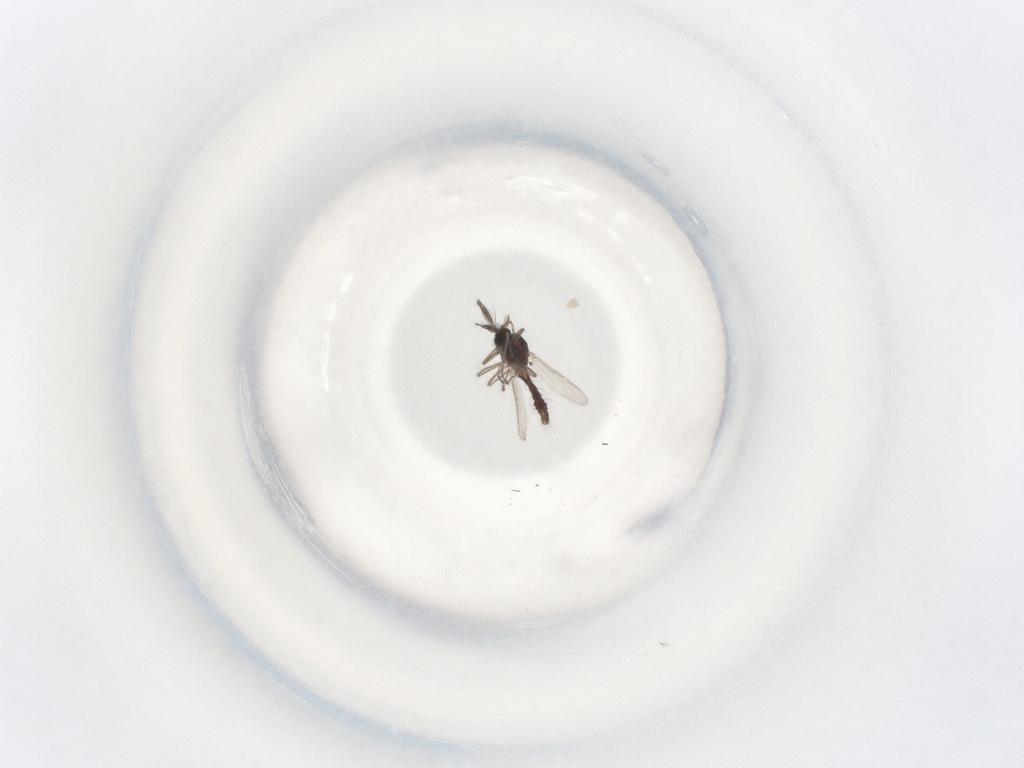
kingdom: Animalia
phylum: Arthropoda
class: Insecta
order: Diptera
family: Ceratopogonidae
